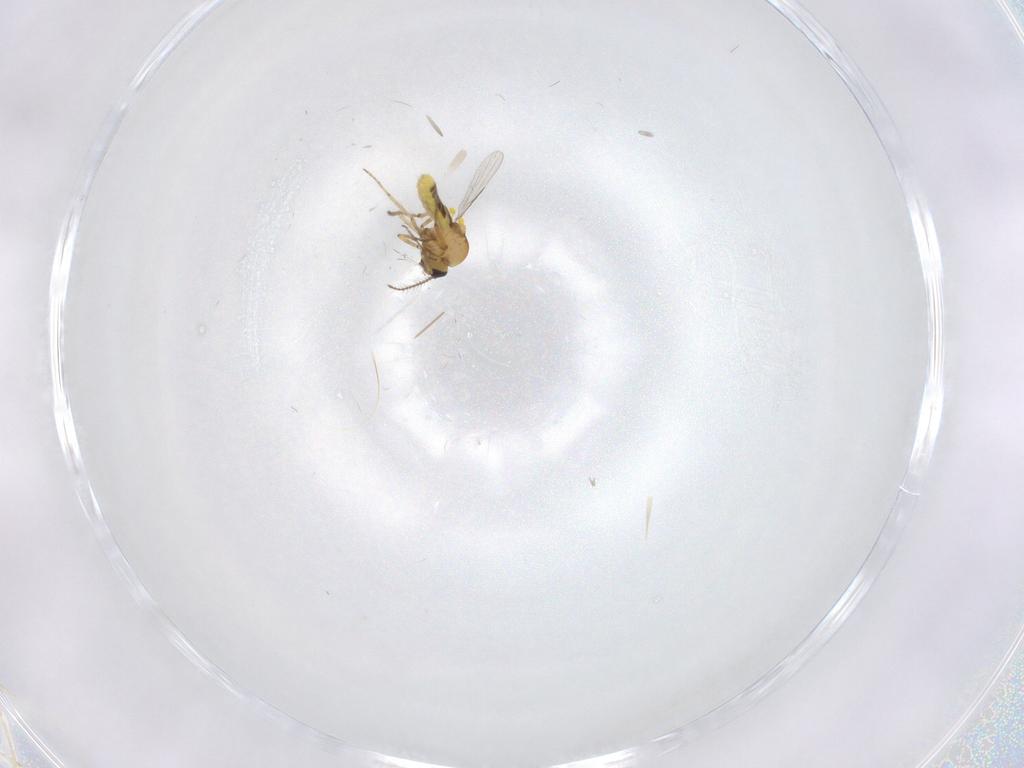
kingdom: Animalia
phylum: Arthropoda
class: Insecta
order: Diptera
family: Ceratopogonidae
